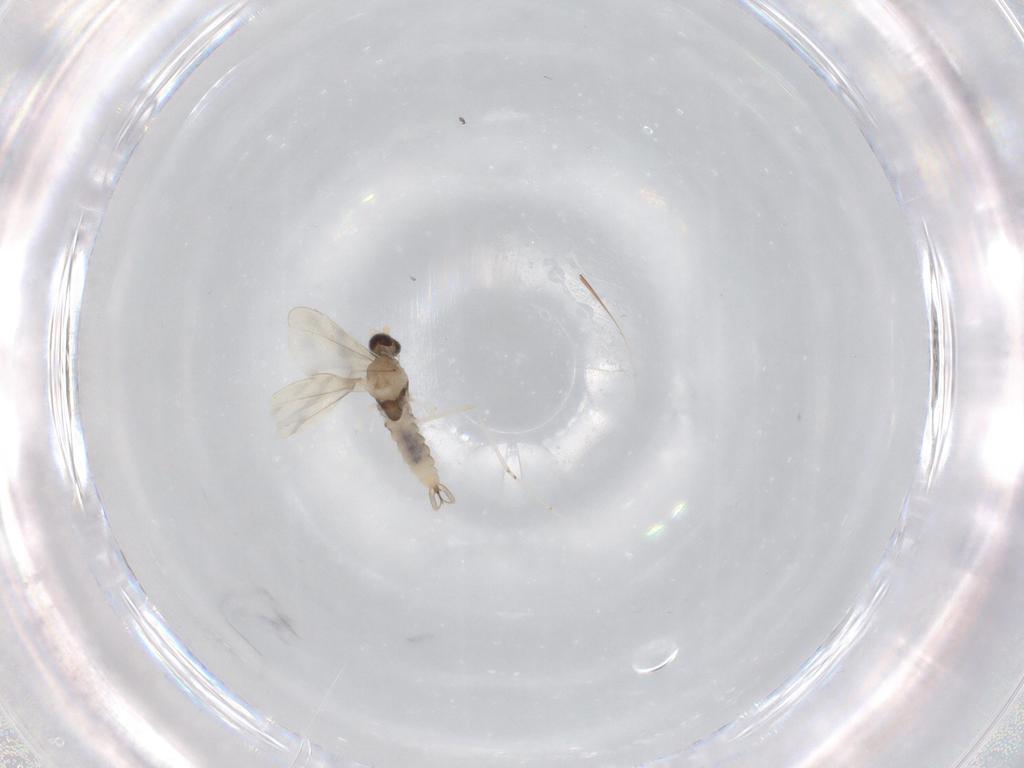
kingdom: Animalia
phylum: Arthropoda
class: Insecta
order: Diptera
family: Cecidomyiidae
